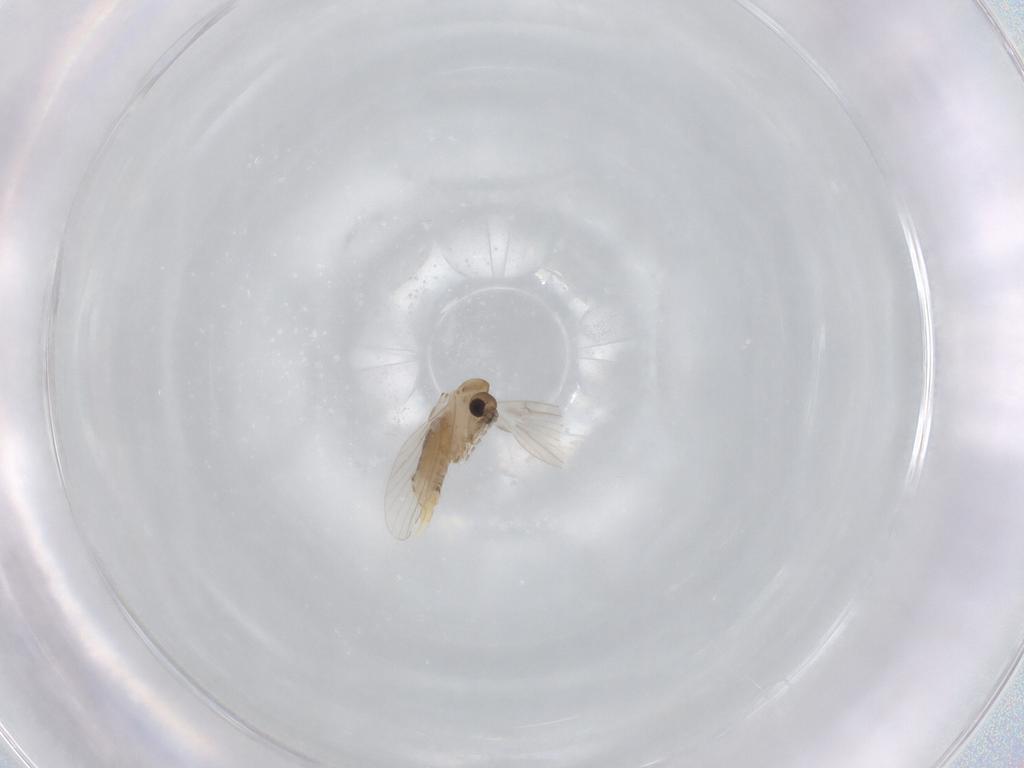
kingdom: Animalia
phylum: Arthropoda
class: Insecta
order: Diptera
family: Psychodidae
